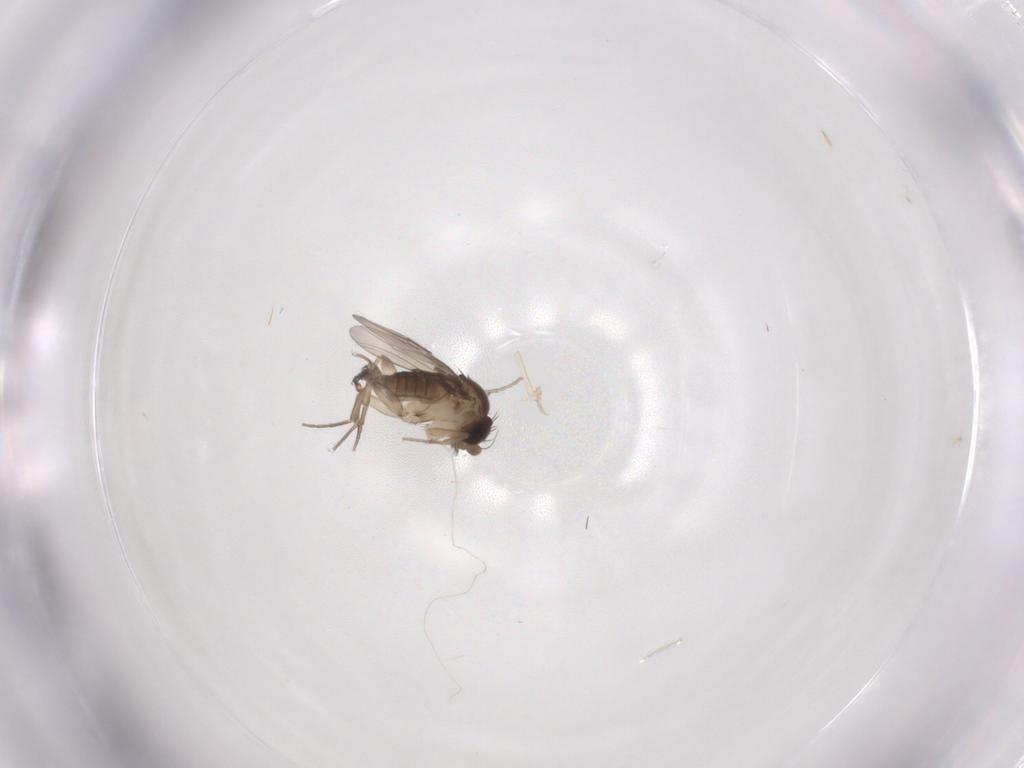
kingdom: Animalia
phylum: Arthropoda
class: Insecta
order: Diptera
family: Phoridae
